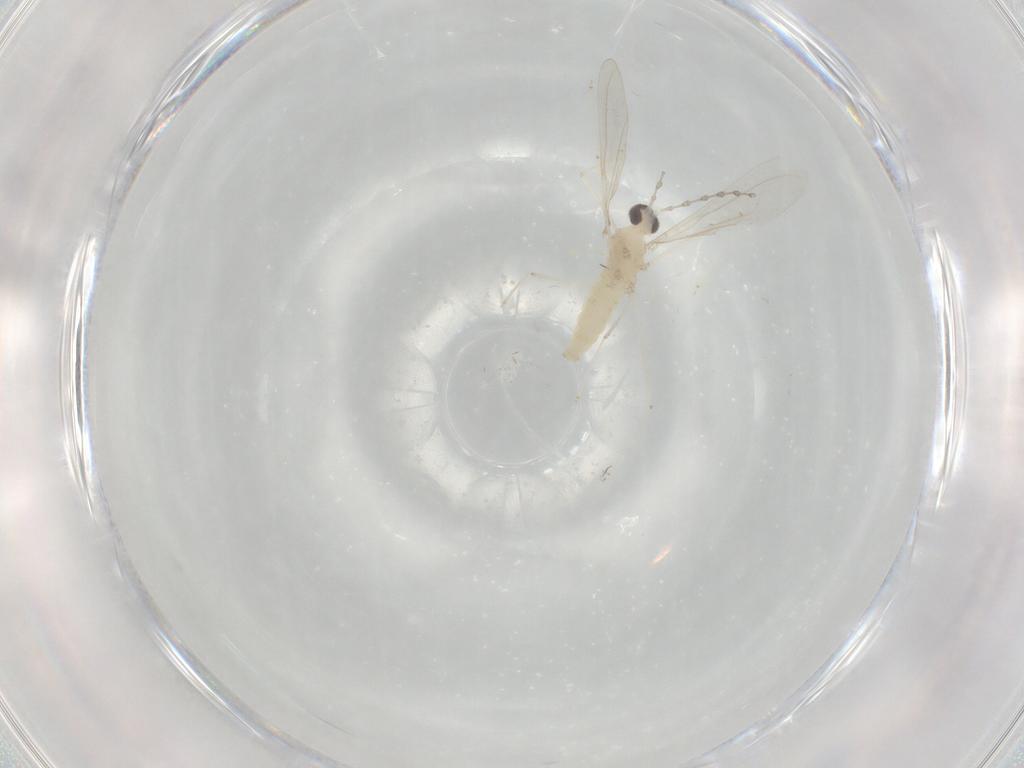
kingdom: Animalia
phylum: Arthropoda
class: Insecta
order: Diptera
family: Cecidomyiidae
